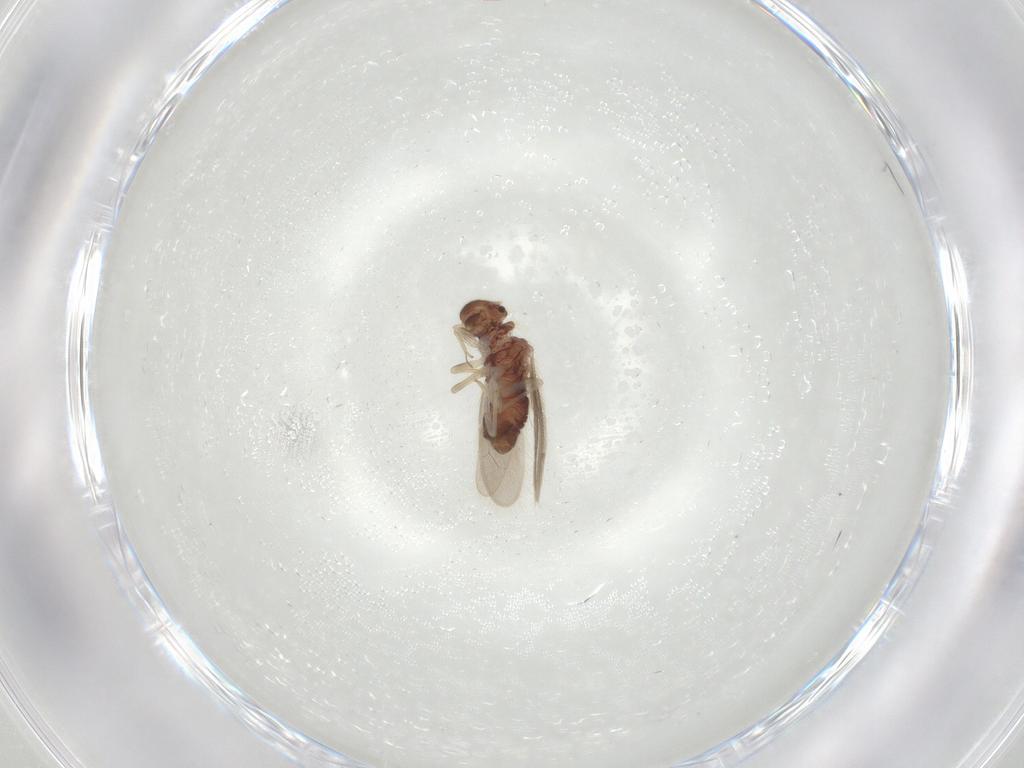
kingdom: Animalia
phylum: Arthropoda
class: Insecta
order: Psocodea
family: Archipsocidae
